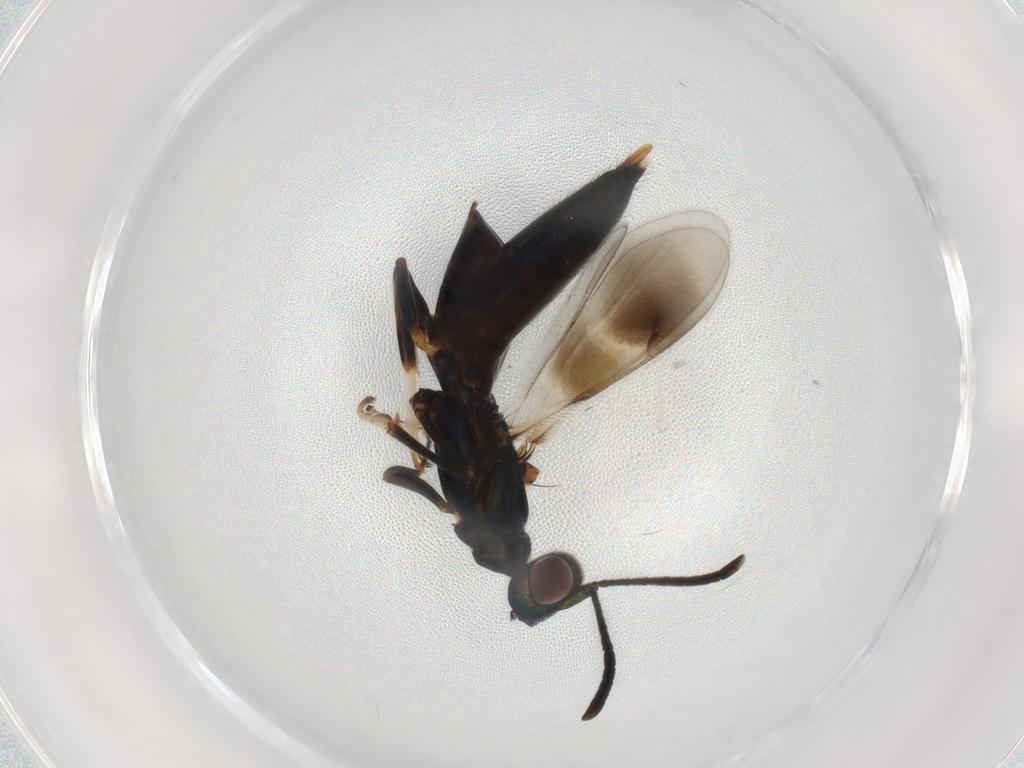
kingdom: Animalia
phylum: Arthropoda
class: Insecta
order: Hymenoptera
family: Eupelmidae
